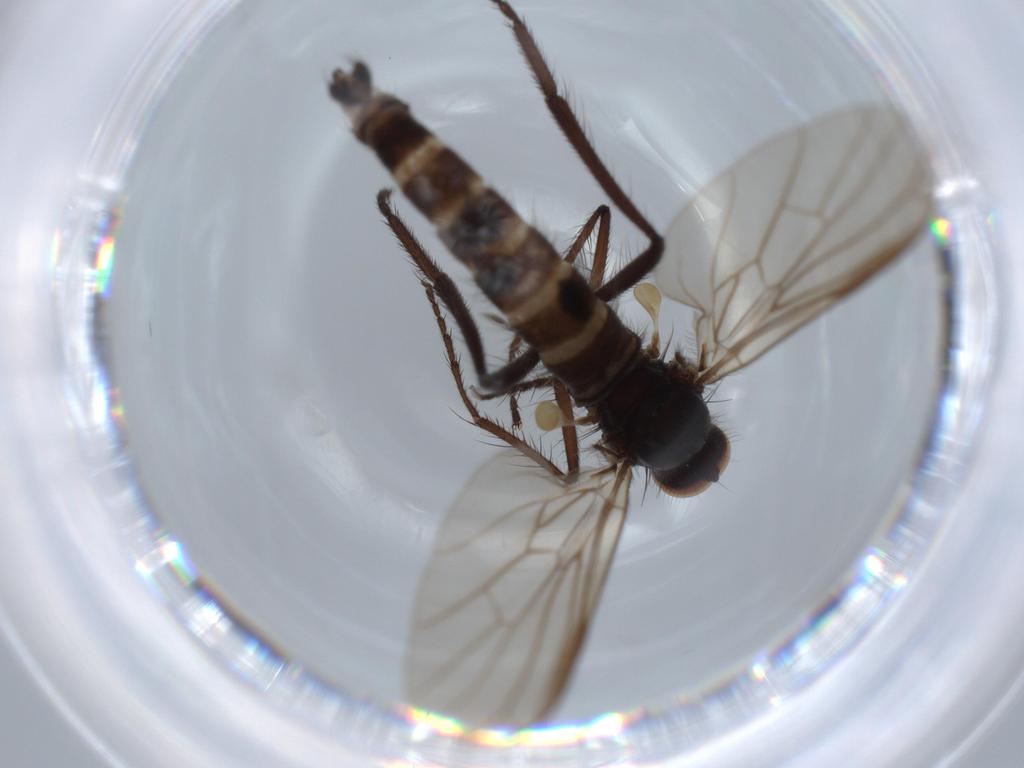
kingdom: Animalia
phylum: Arthropoda
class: Insecta
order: Diptera
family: Empididae
